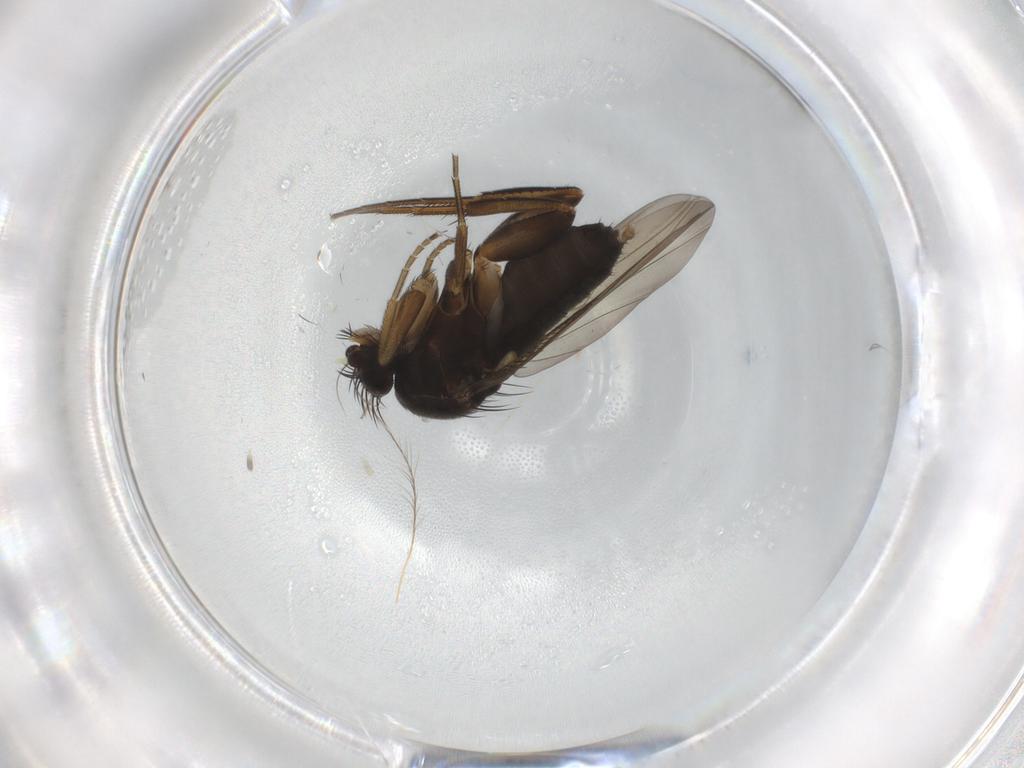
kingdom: Animalia
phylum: Arthropoda
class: Insecta
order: Diptera
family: Phoridae
